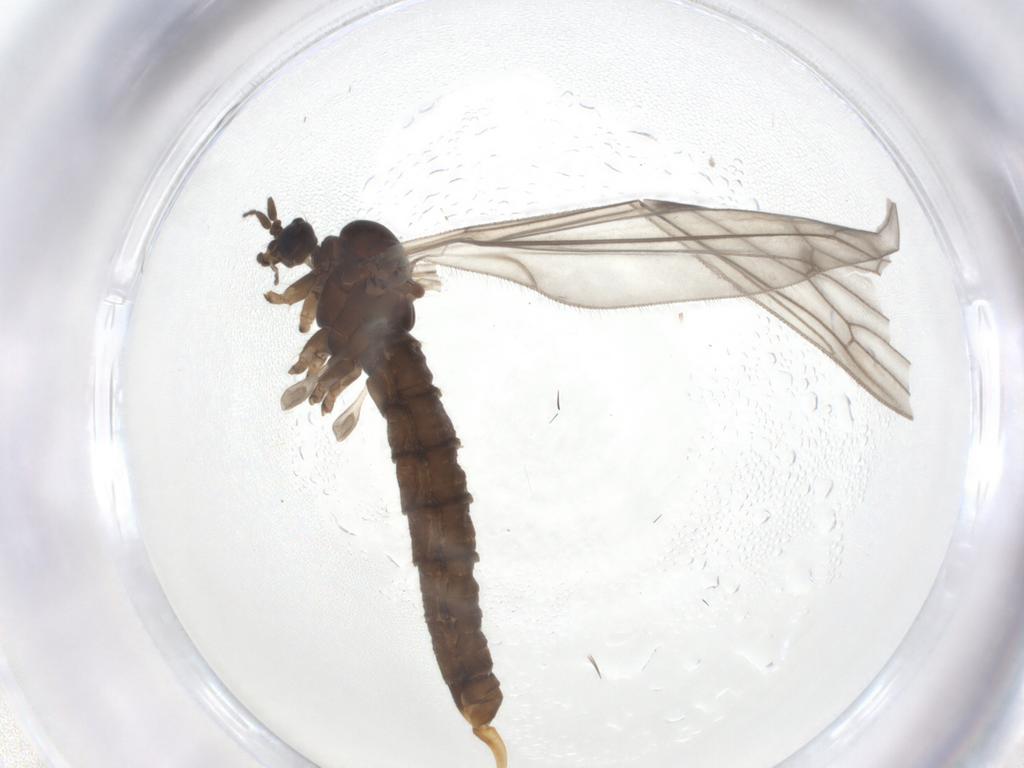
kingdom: Animalia
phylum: Arthropoda
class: Insecta
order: Diptera
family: Trichoceridae
